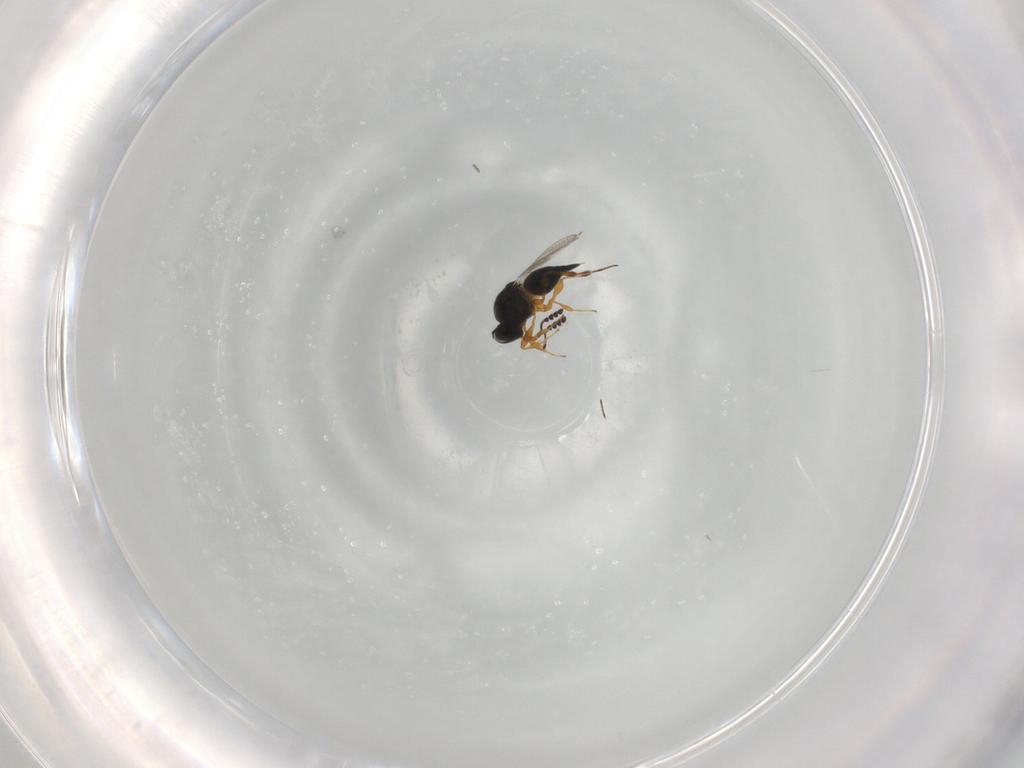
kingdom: Animalia
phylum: Arthropoda
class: Insecta
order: Hymenoptera
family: Platygastridae
